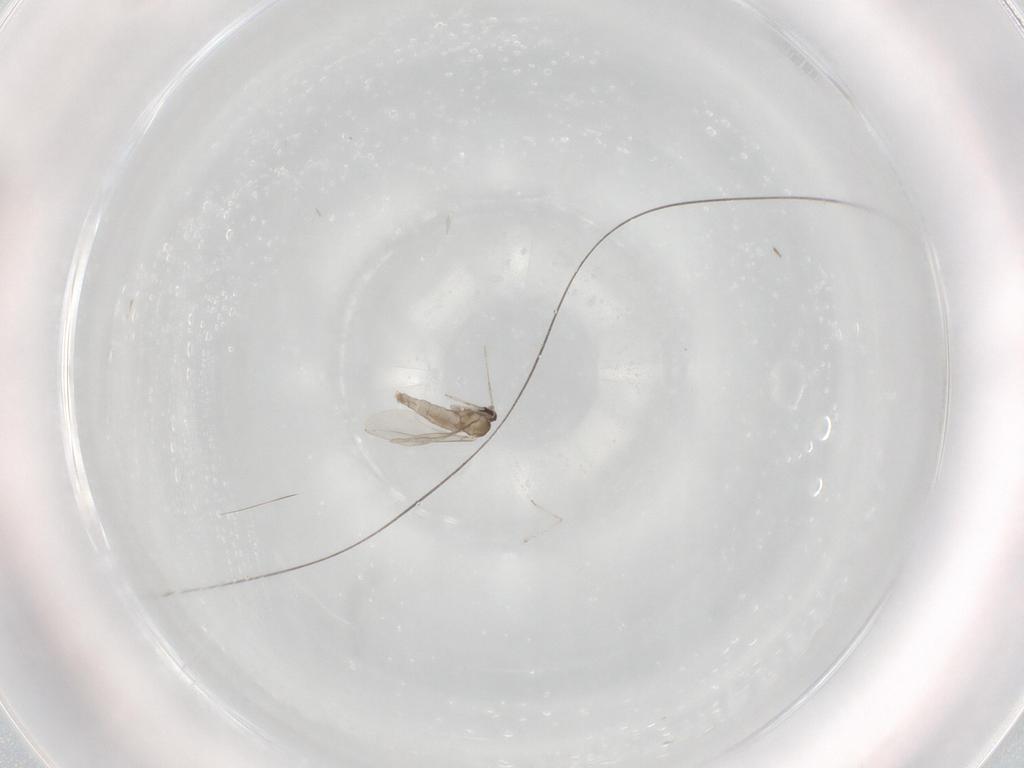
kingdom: Animalia
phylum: Arthropoda
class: Insecta
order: Diptera
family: Cecidomyiidae
